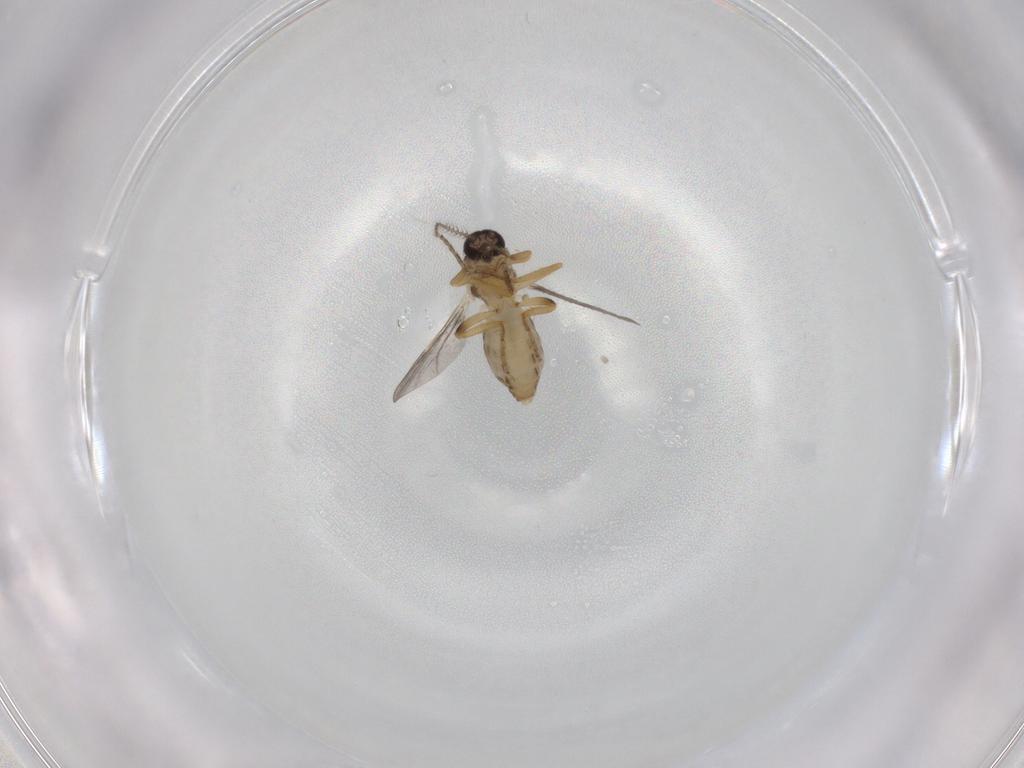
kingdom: Animalia
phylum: Arthropoda
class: Insecta
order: Diptera
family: Ceratopogonidae
